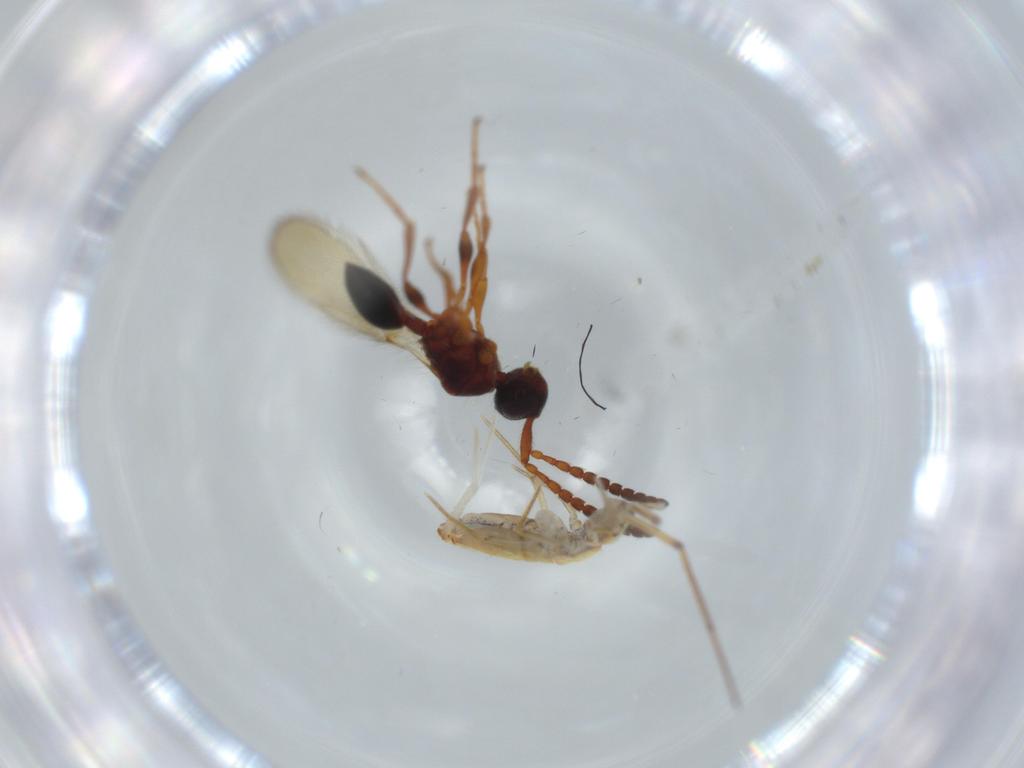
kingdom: Animalia
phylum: Arthropoda
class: Insecta
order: Hymenoptera
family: Diapriidae
